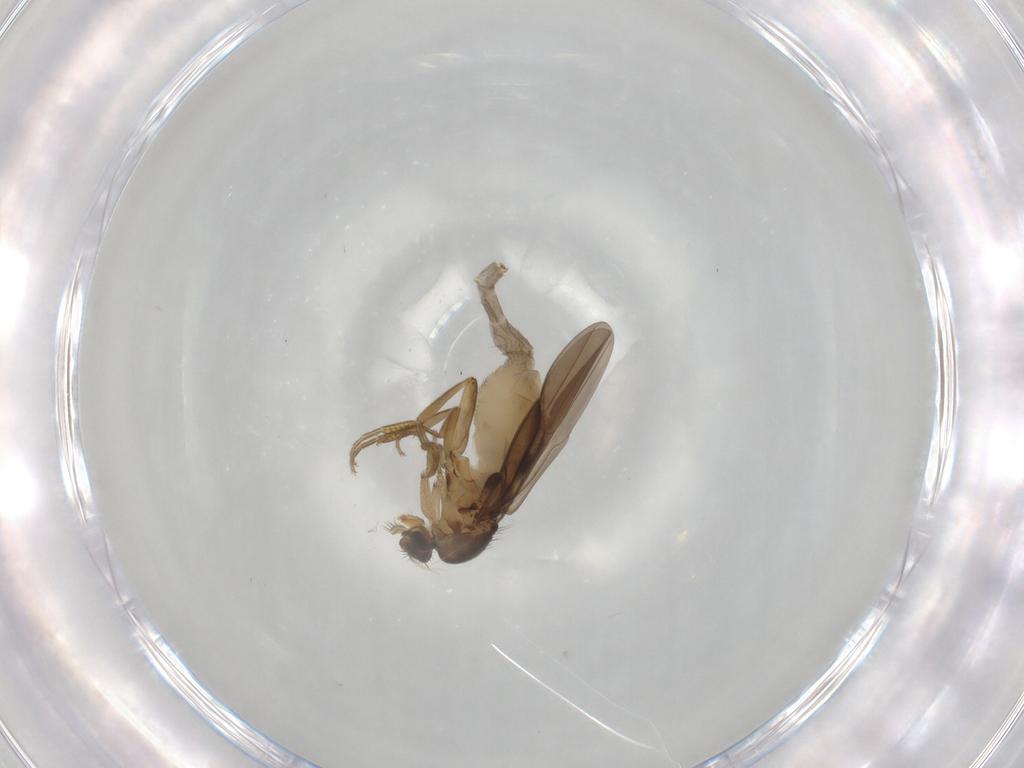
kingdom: Animalia
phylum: Arthropoda
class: Insecta
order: Diptera
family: Phoridae
